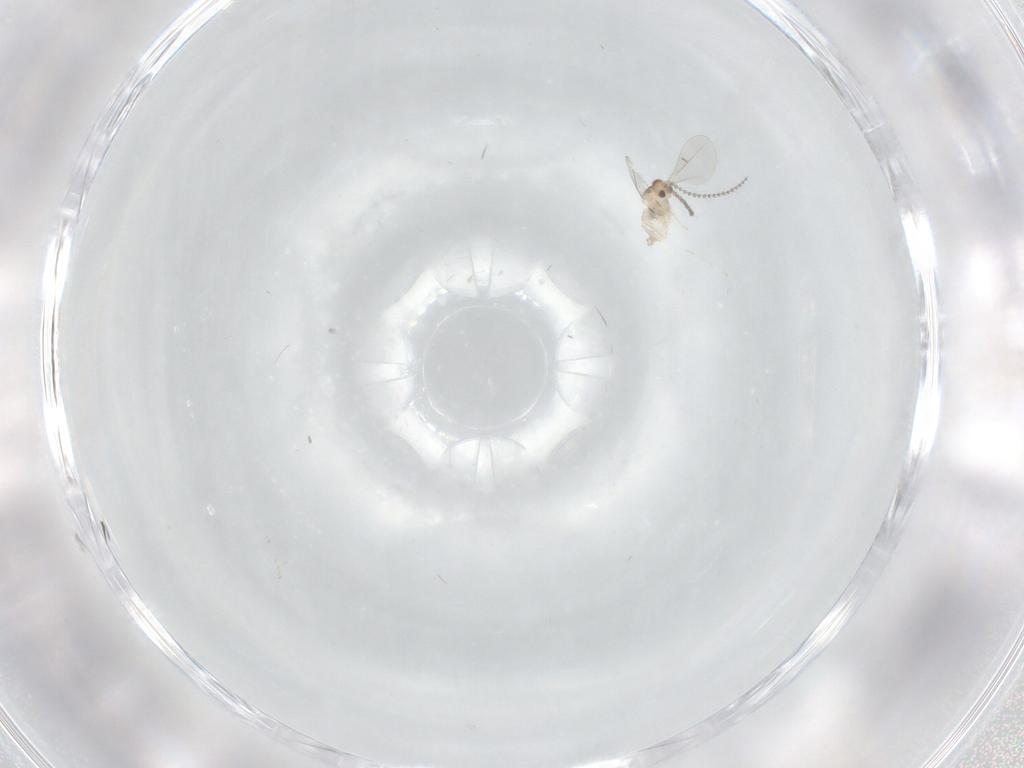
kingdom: Animalia
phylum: Arthropoda
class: Insecta
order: Diptera
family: Cecidomyiidae
